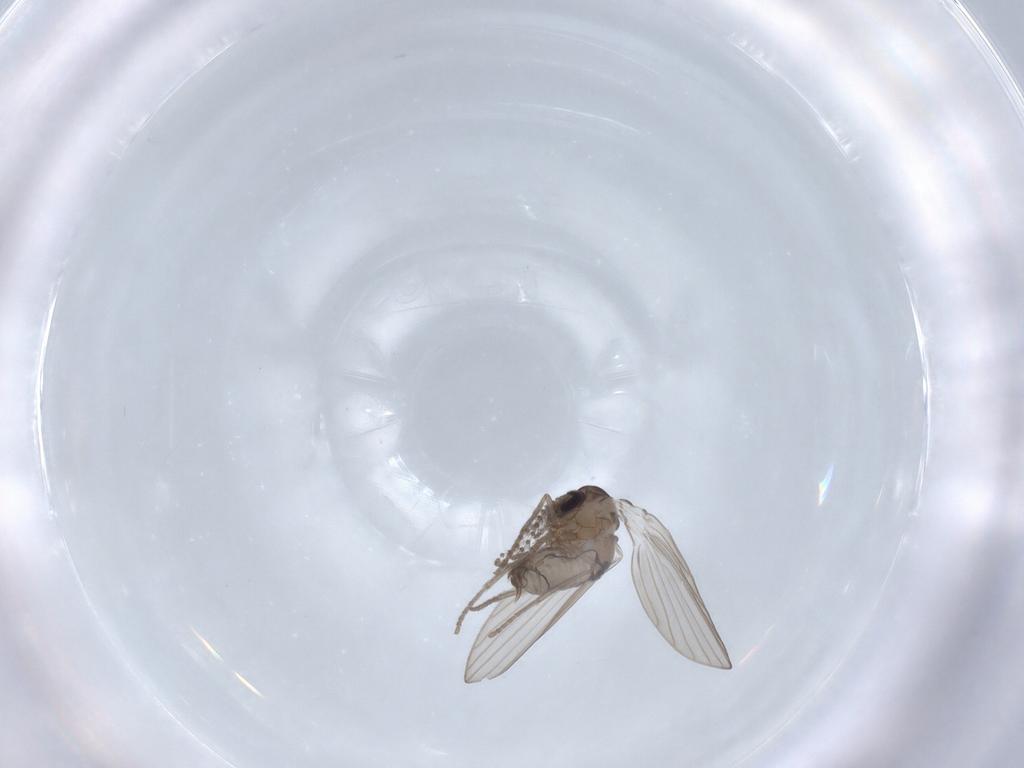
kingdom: Animalia
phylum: Arthropoda
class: Insecta
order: Diptera
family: Psychodidae
